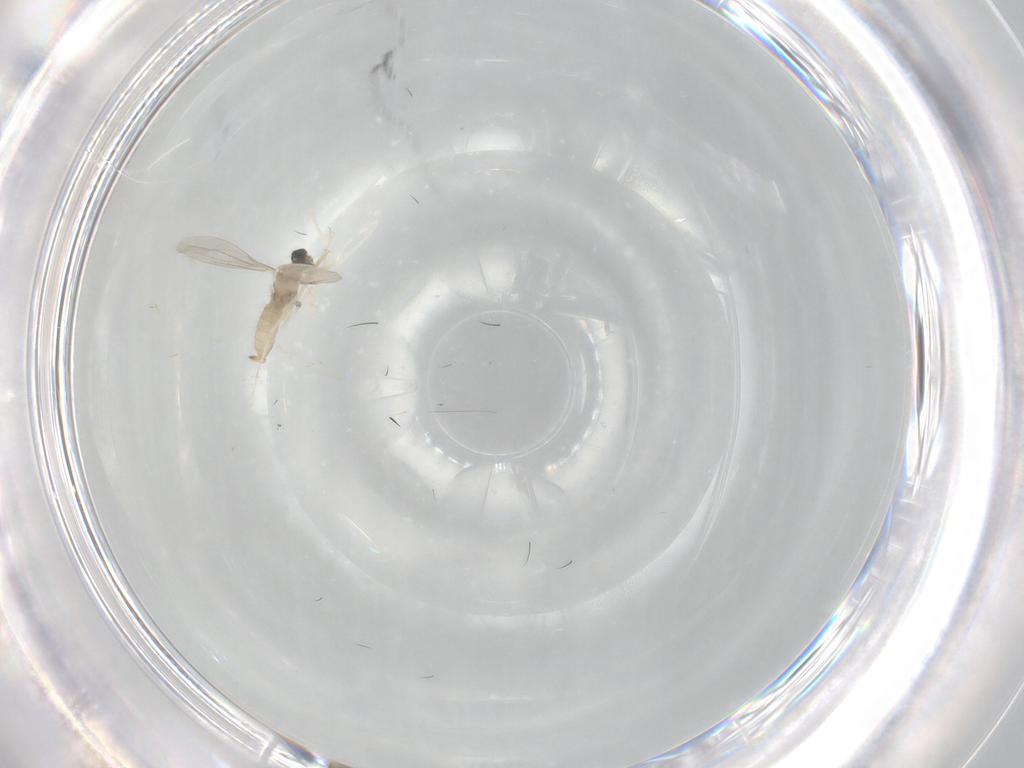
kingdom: Animalia
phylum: Arthropoda
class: Insecta
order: Diptera
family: Cecidomyiidae
